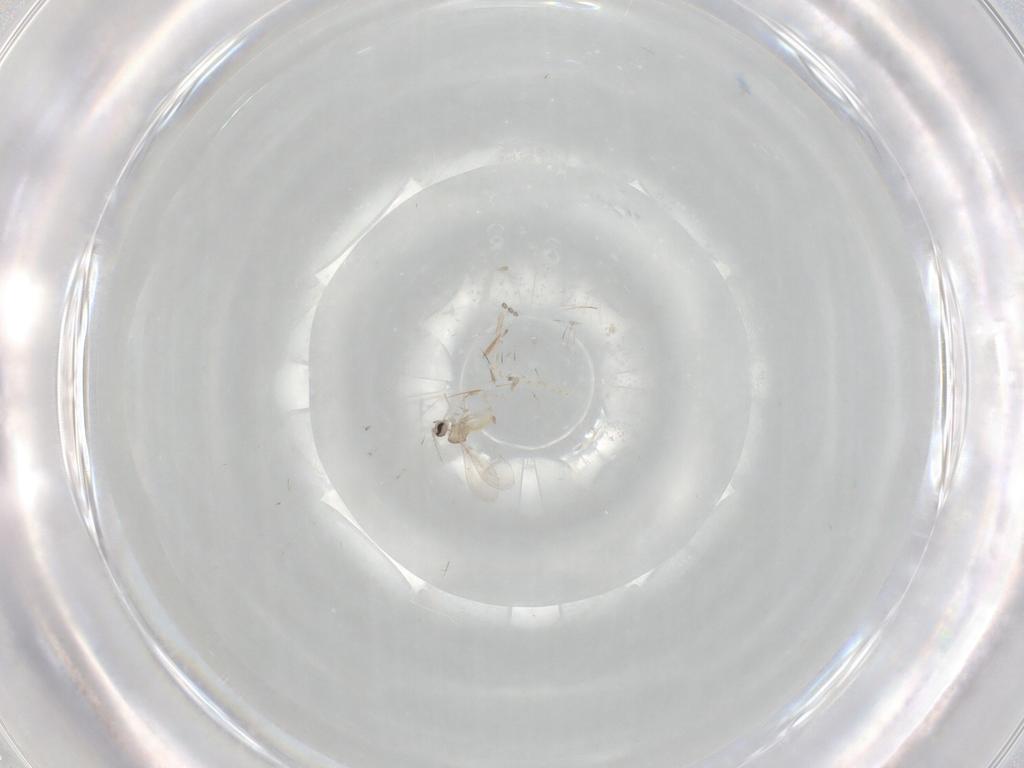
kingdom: Animalia
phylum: Arthropoda
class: Insecta
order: Diptera
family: Cecidomyiidae
